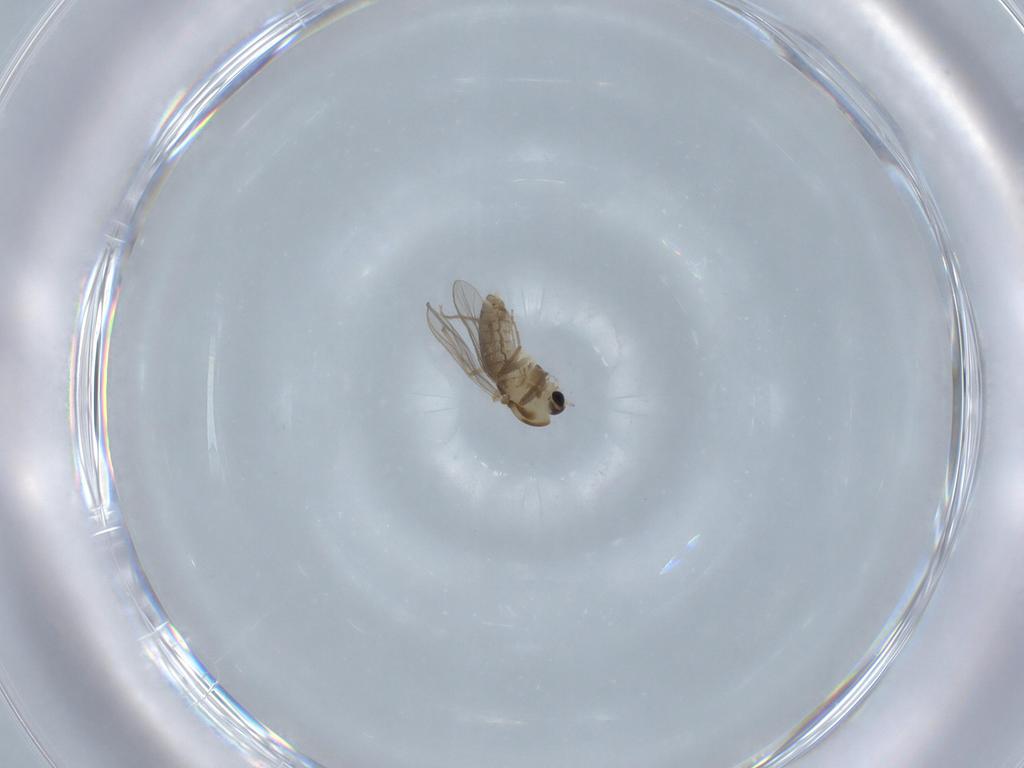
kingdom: Animalia
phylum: Arthropoda
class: Insecta
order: Diptera
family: Chironomidae
